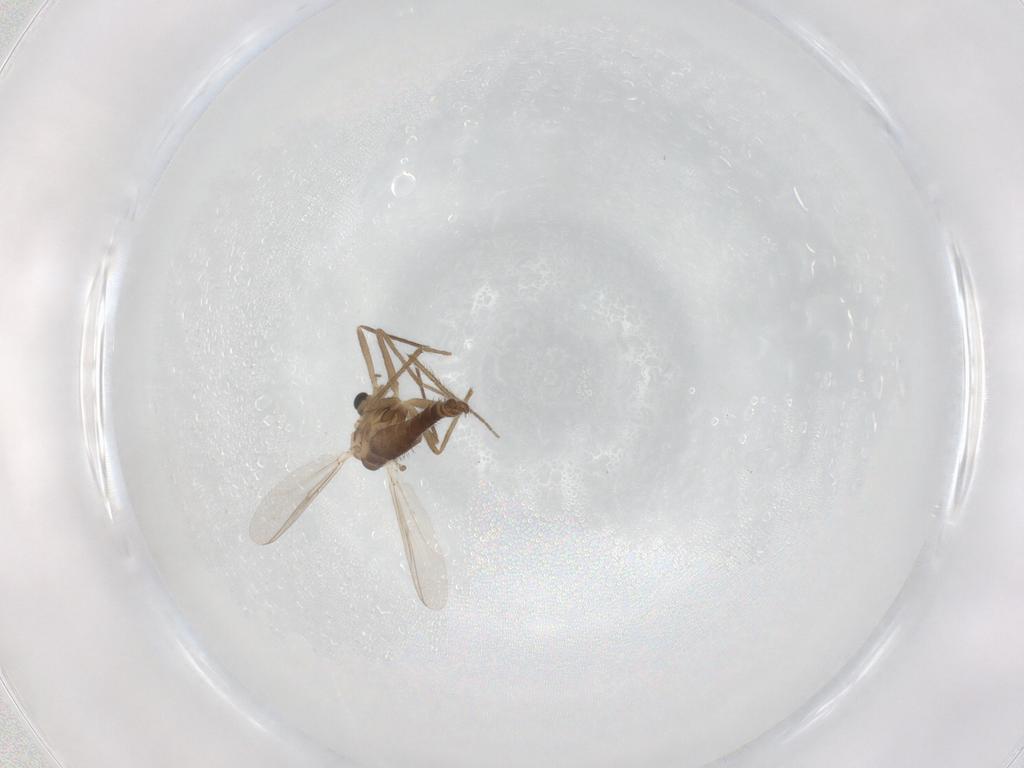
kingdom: Animalia
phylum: Arthropoda
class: Insecta
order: Diptera
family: Chironomidae
